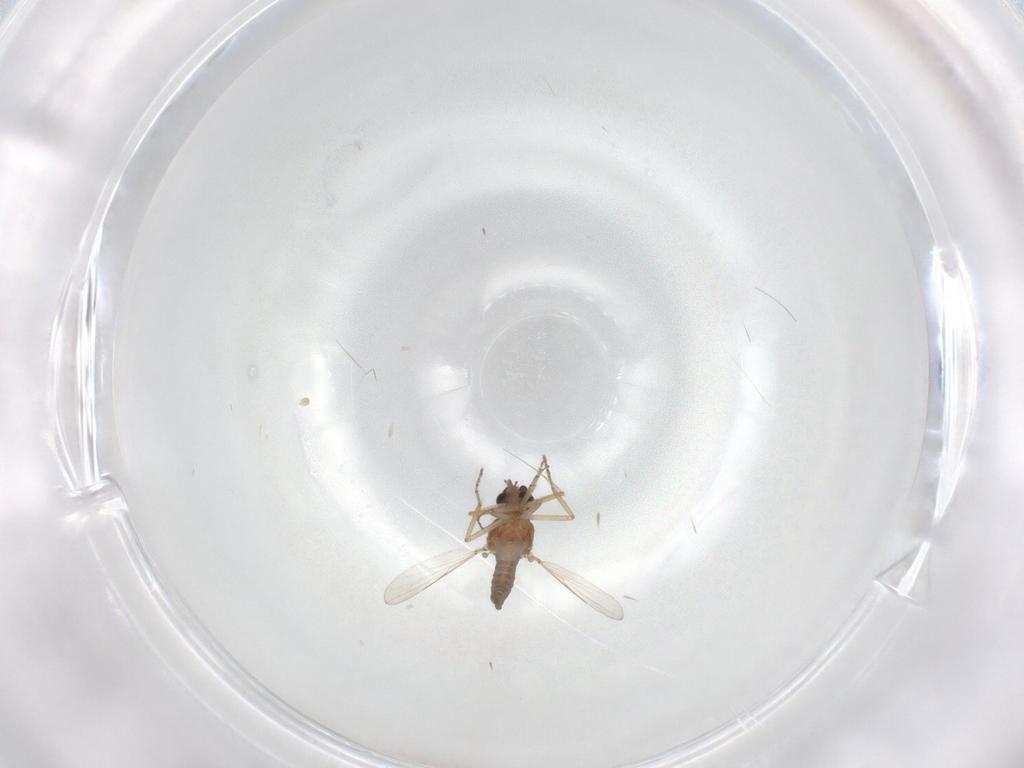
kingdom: Animalia
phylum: Arthropoda
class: Insecta
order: Diptera
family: Ceratopogonidae
